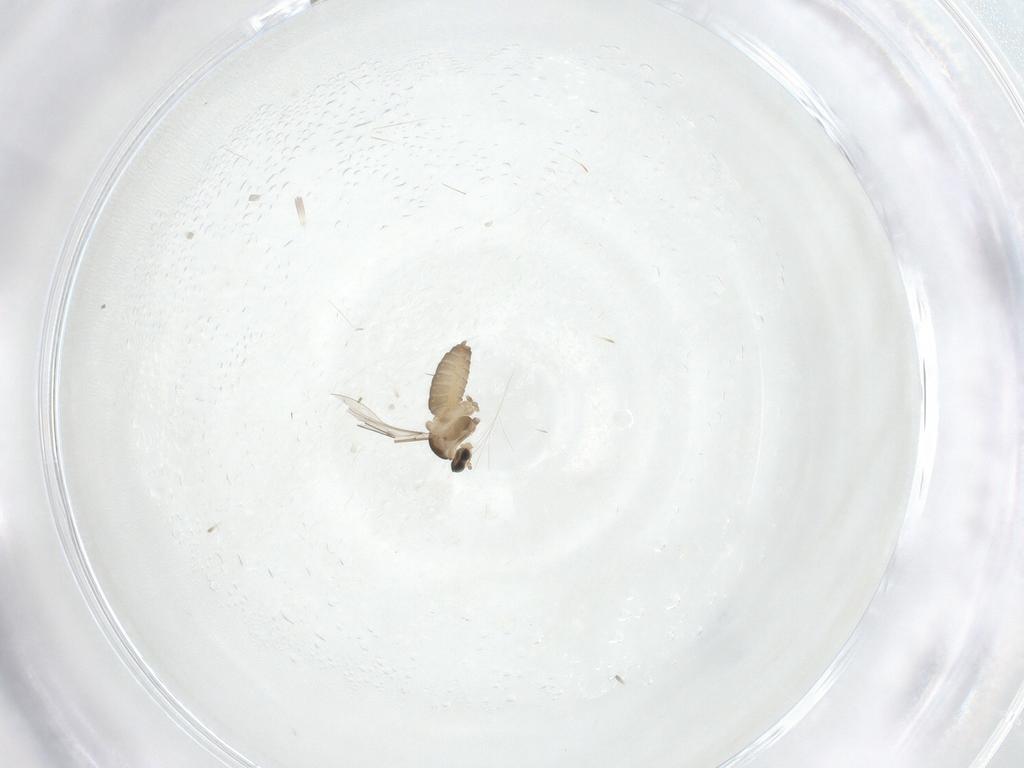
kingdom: Animalia
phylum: Arthropoda
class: Insecta
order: Diptera
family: Cecidomyiidae
